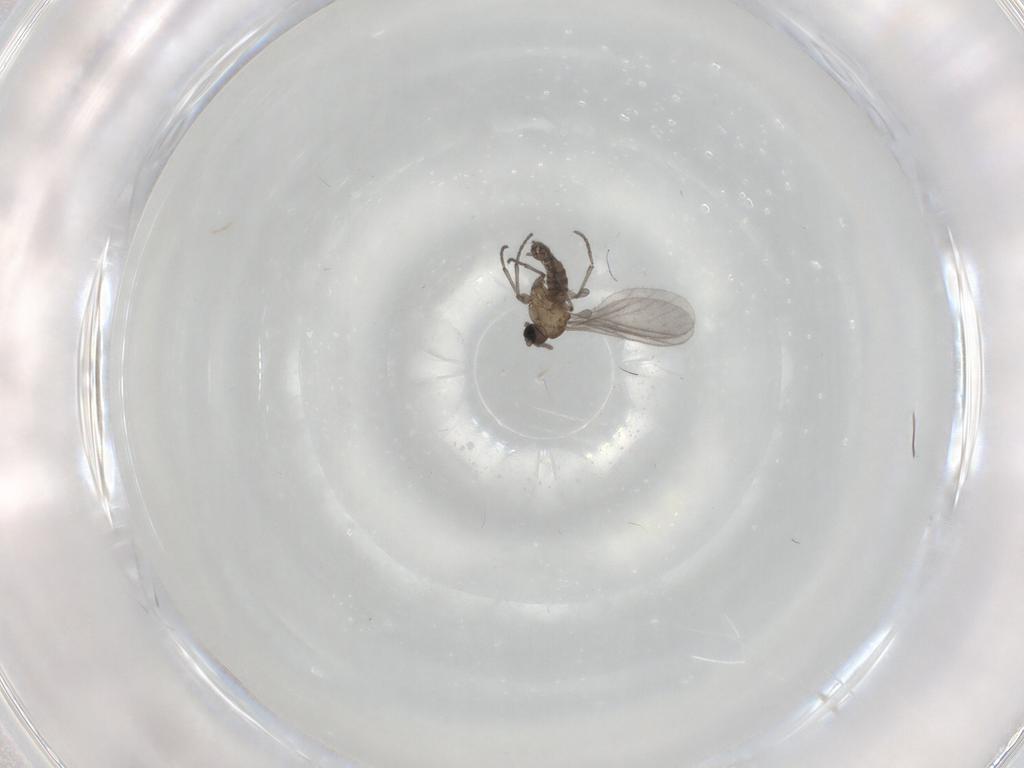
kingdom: Animalia
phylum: Arthropoda
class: Insecta
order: Diptera
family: Sciaridae
